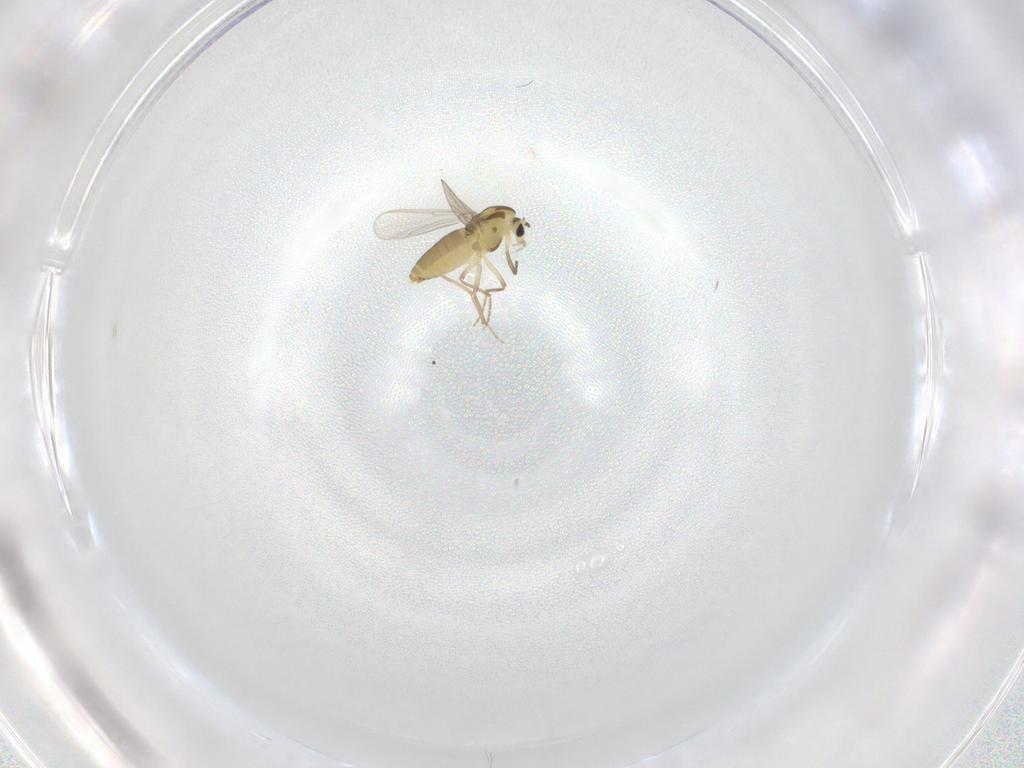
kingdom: Animalia
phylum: Arthropoda
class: Insecta
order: Diptera
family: Chironomidae
